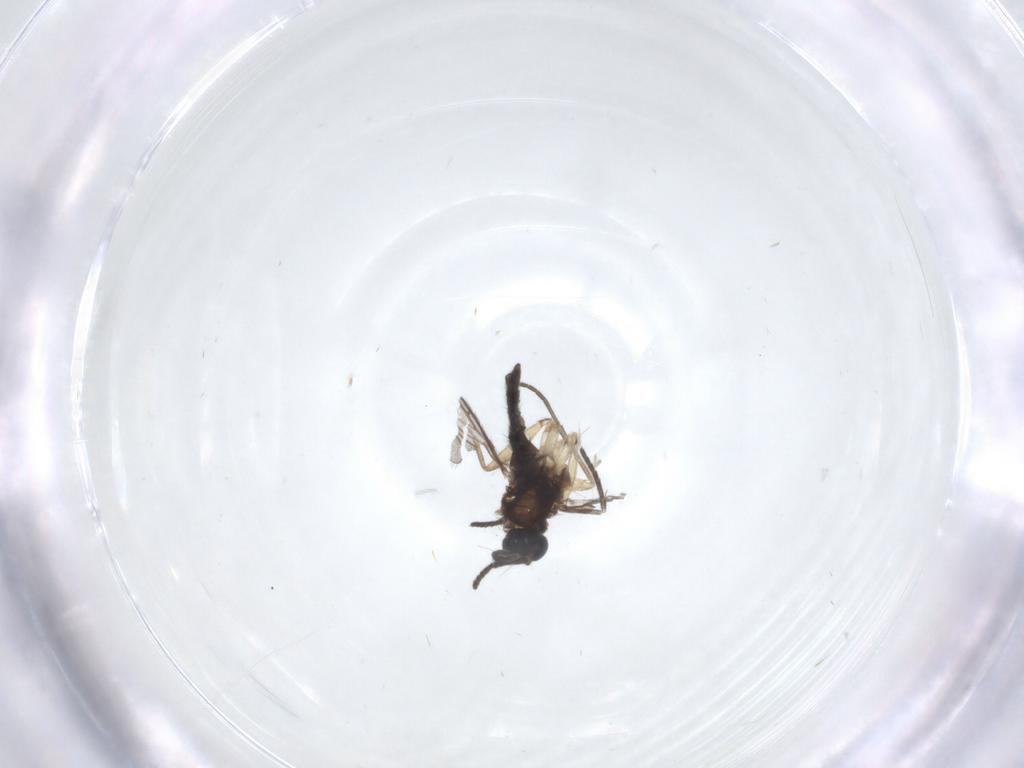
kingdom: Animalia
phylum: Arthropoda
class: Insecta
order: Diptera
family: Sciaridae
